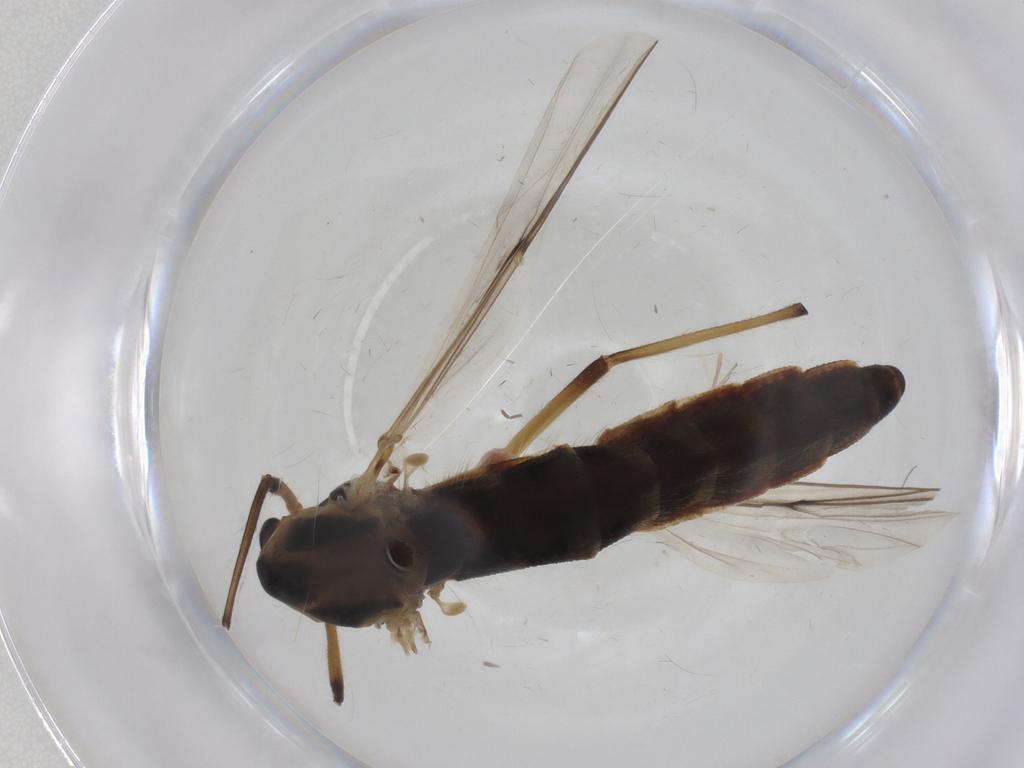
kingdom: Animalia
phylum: Arthropoda
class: Insecta
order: Diptera
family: Chironomidae
